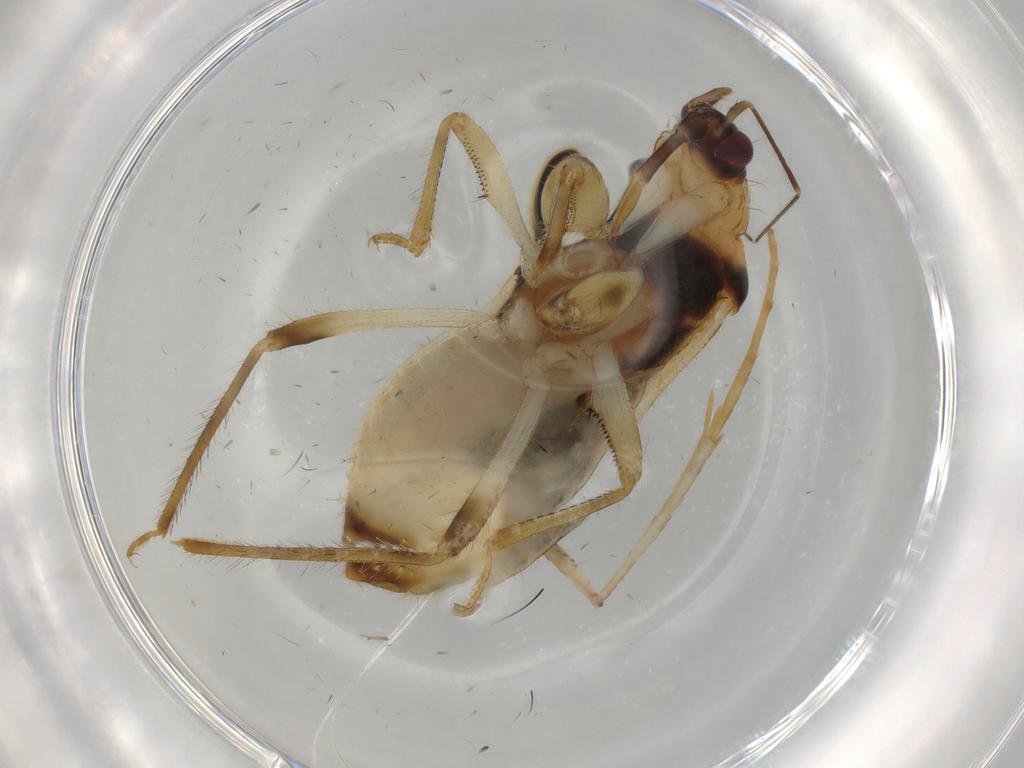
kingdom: Animalia
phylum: Arthropoda
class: Insecta
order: Hemiptera
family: Nabidae
